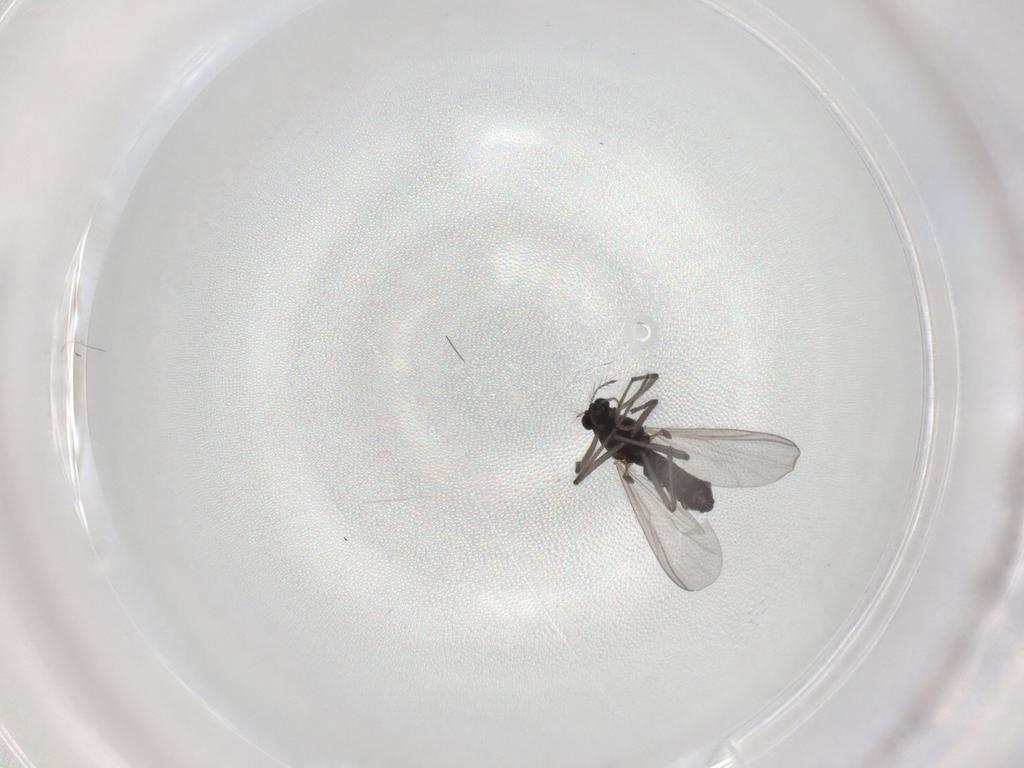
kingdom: Animalia
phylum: Arthropoda
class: Insecta
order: Diptera
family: Chironomidae
